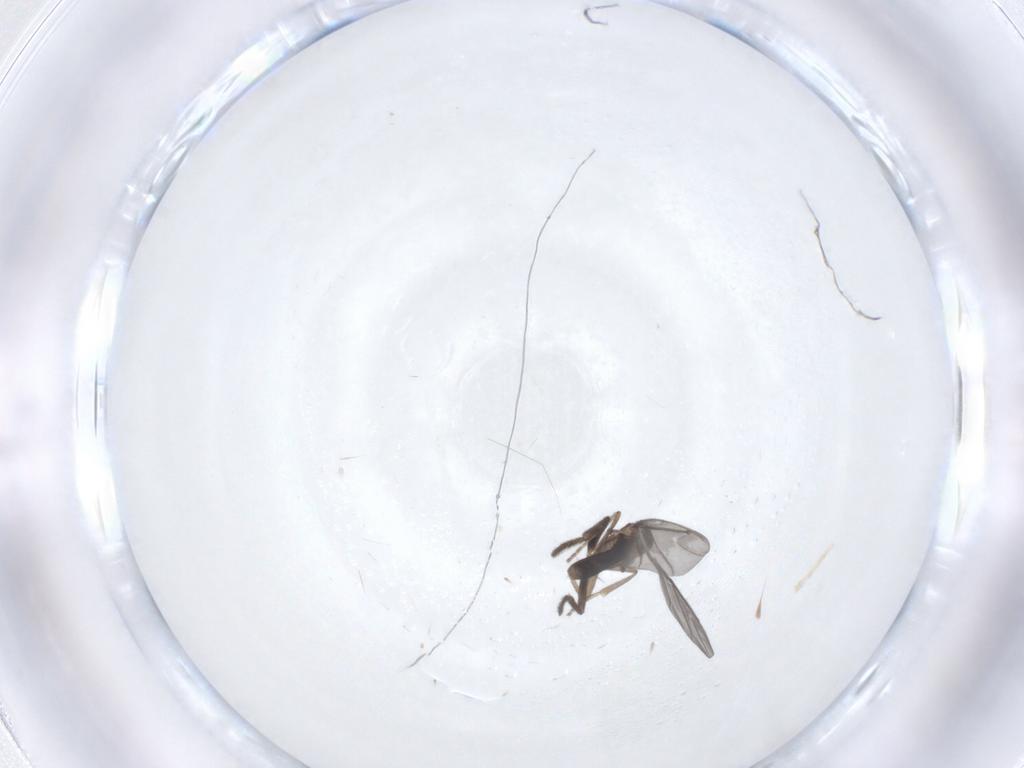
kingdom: Animalia
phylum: Arthropoda
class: Insecta
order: Diptera
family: Phoridae
